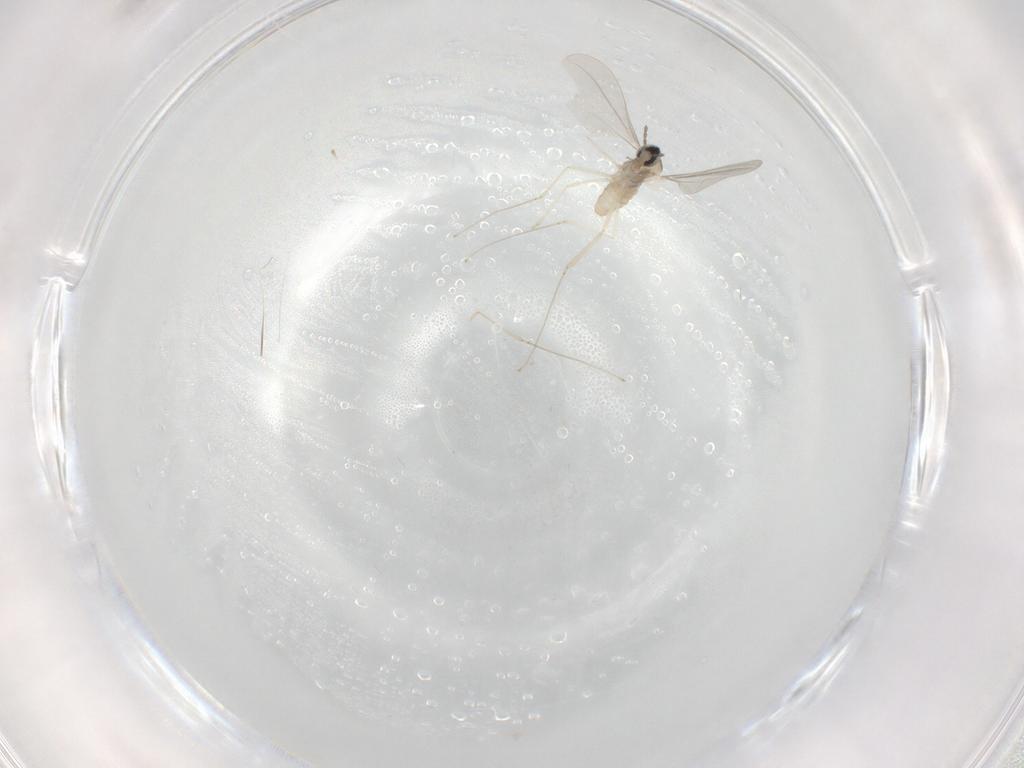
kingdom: Animalia
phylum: Arthropoda
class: Insecta
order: Diptera
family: Cecidomyiidae
